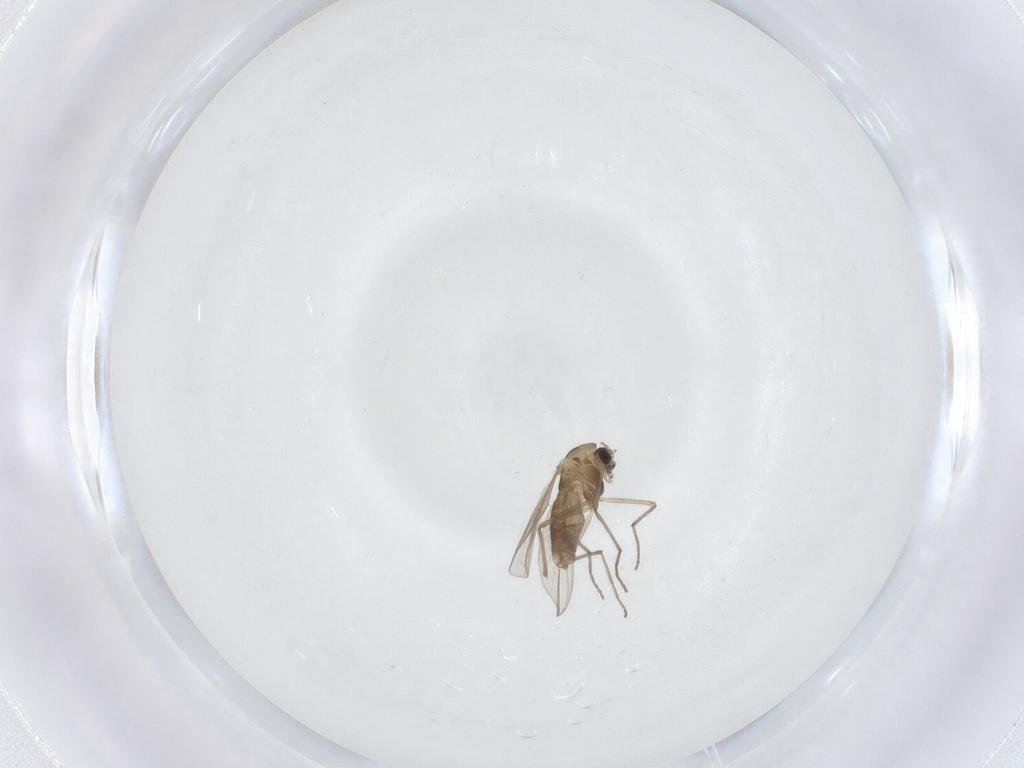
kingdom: Animalia
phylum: Arthropoda
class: Insecta
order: Diptera
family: Chironomidae
